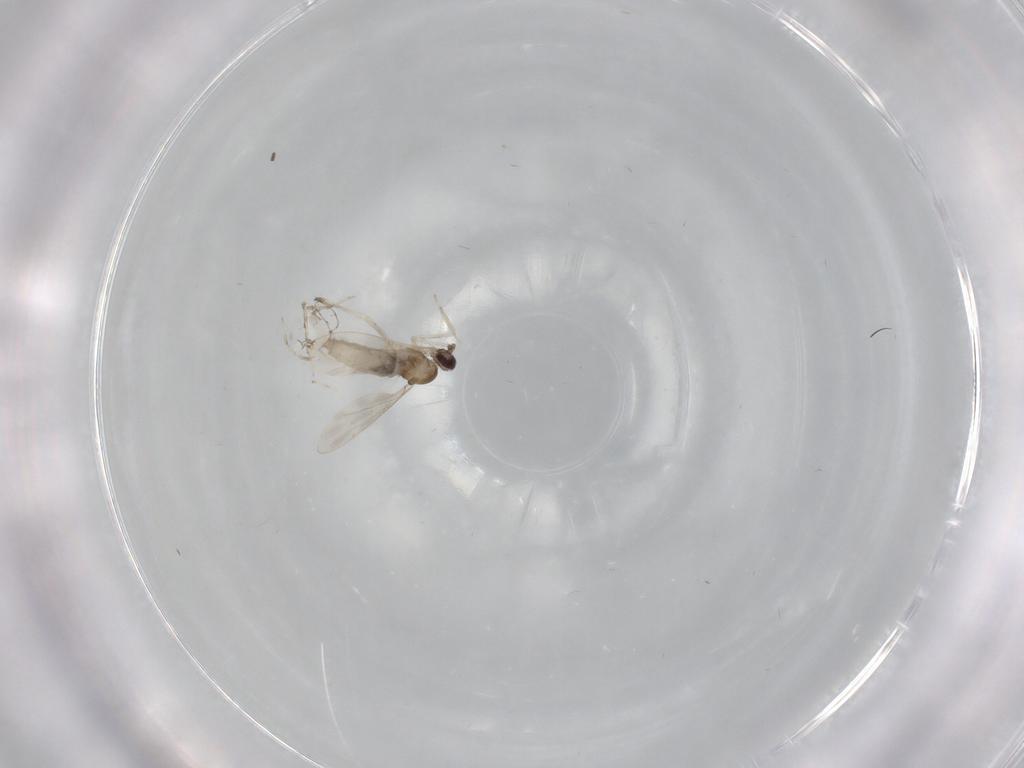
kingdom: Animalia
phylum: Arthropoda
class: Insecta
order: Diptera
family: Sciaridae
